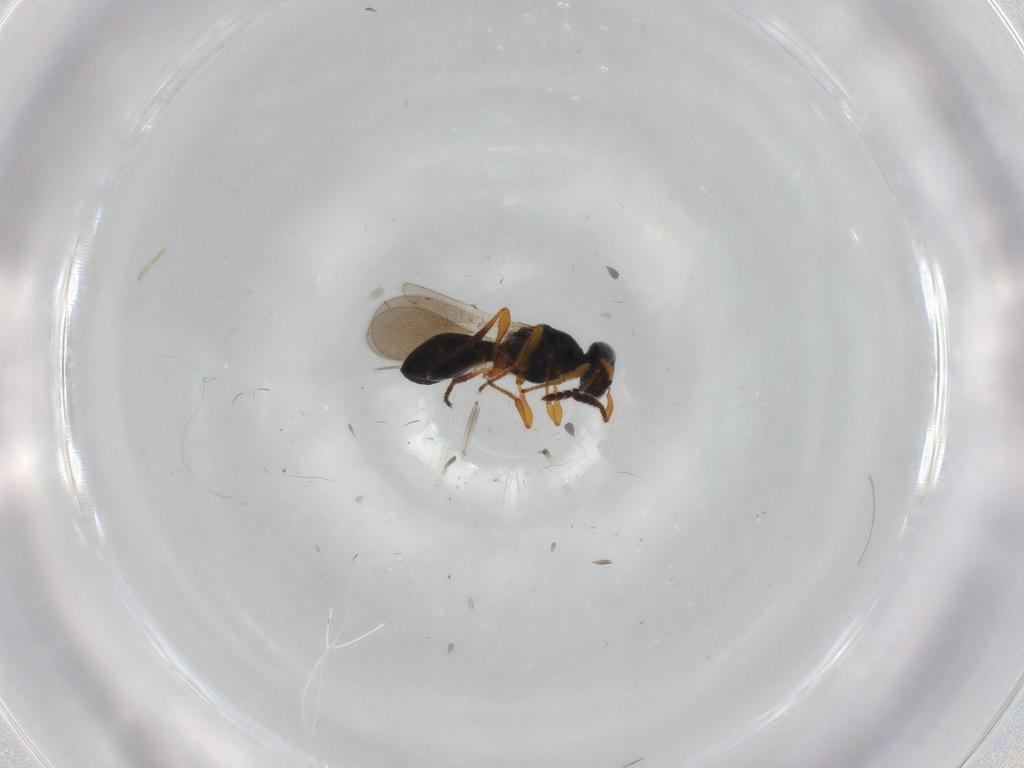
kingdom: Animalia
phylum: Arthropoda
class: Insecta
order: Hymenoptera
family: Platygastridae
